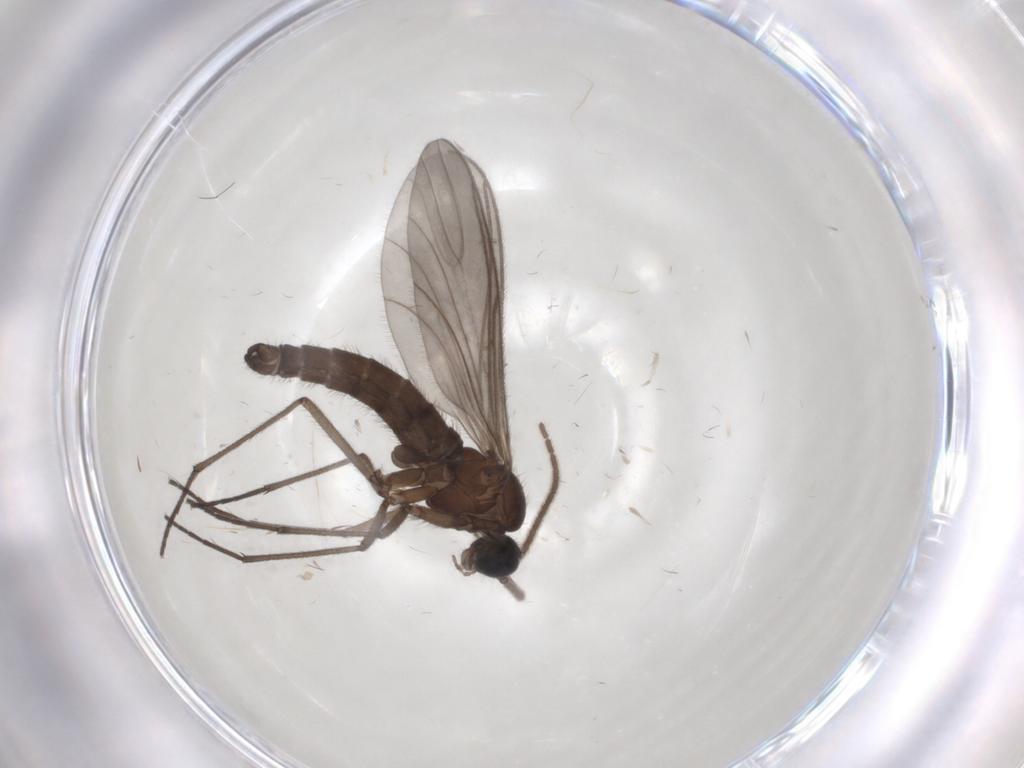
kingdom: Animalia
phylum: Arthropoda
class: Insecta
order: Diptera
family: Sciaridae
